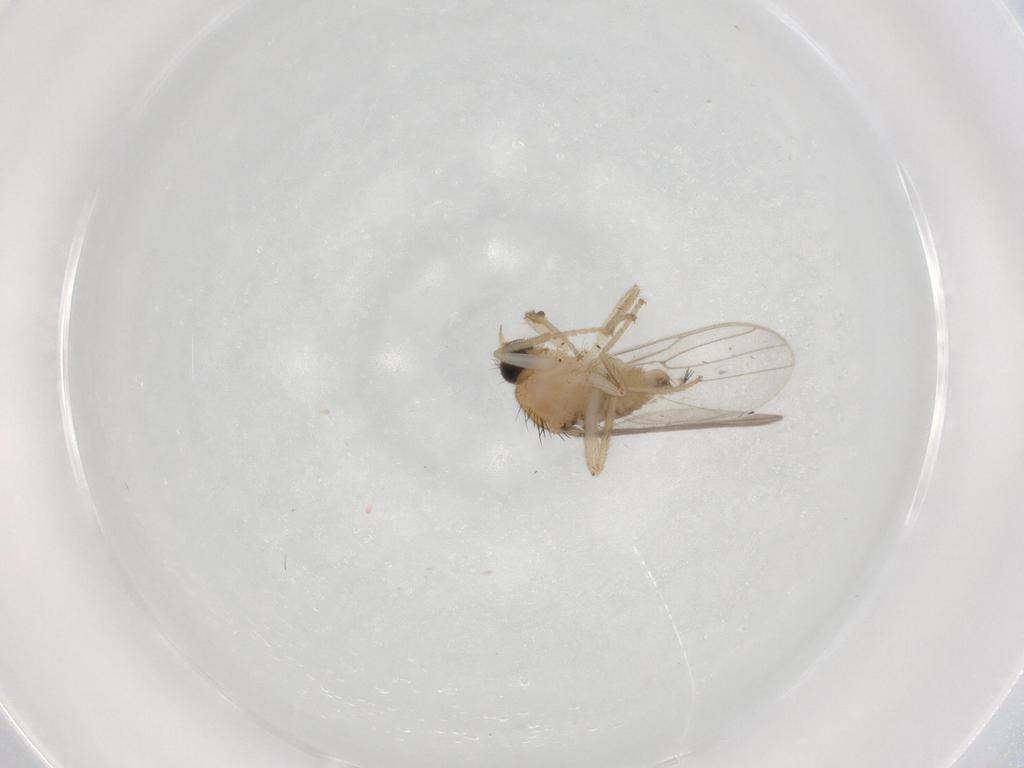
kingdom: Animalia
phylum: Arthropoda
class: Insecta
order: Diptera
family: Hybotidae
